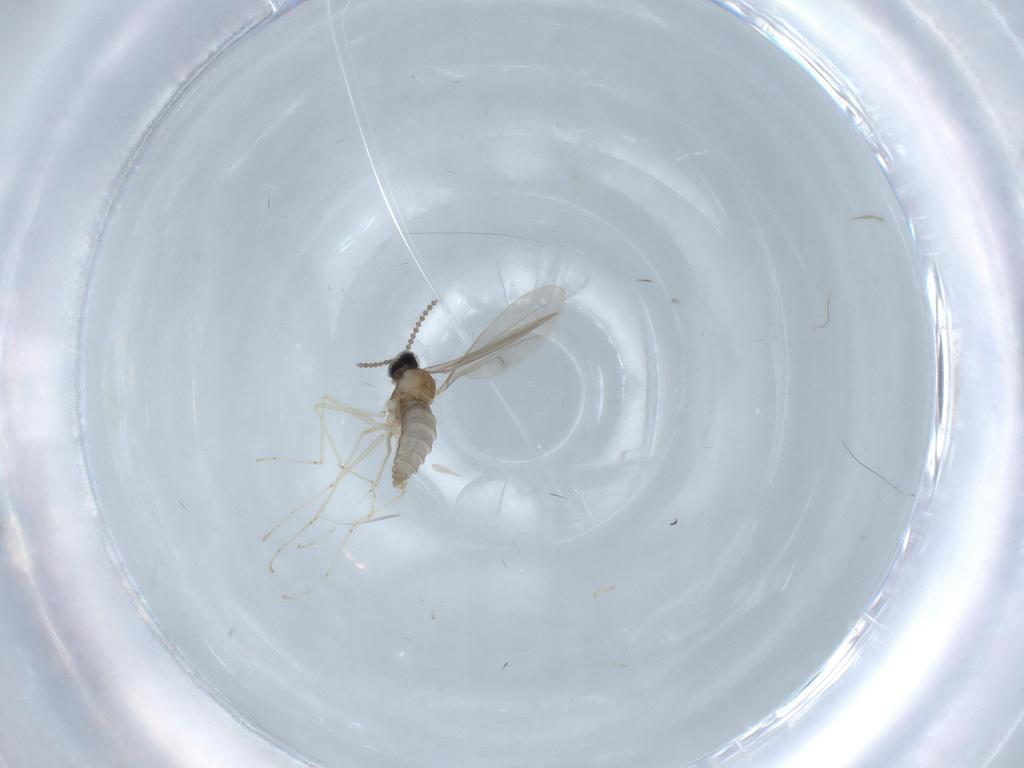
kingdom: Animalia
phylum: Arthropoda
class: Insecta
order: Diptera
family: Cecidomyiidae
